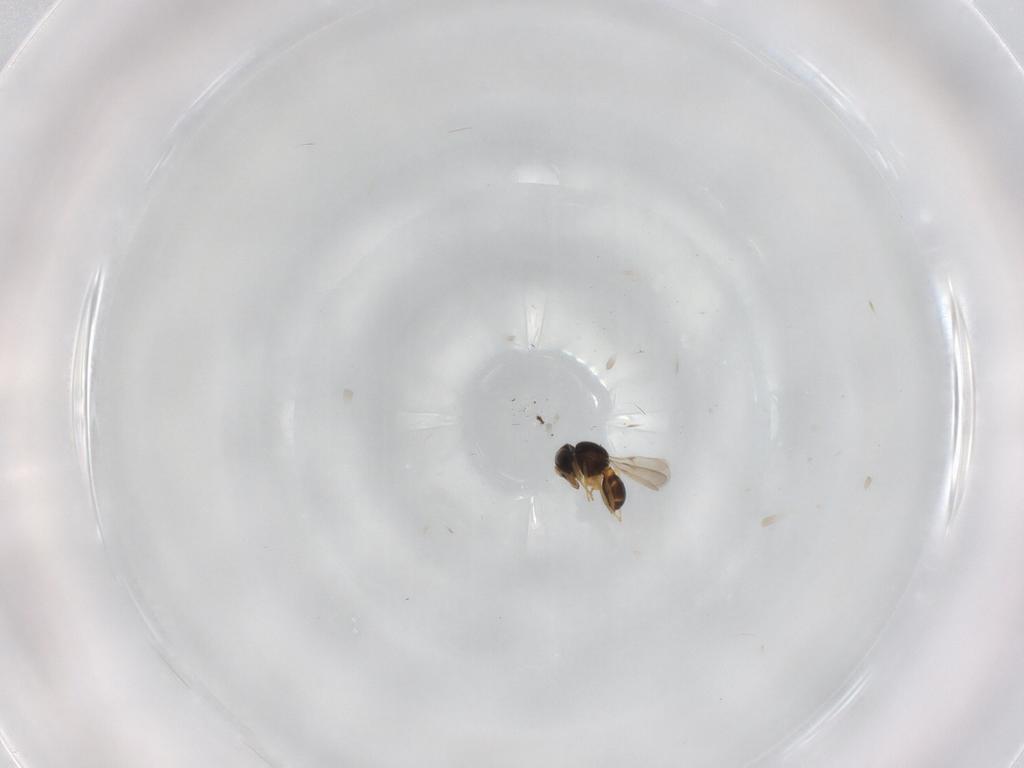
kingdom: Animalia
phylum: Arthropoda
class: Insecta
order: Hymenoptera
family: Scelionidae
